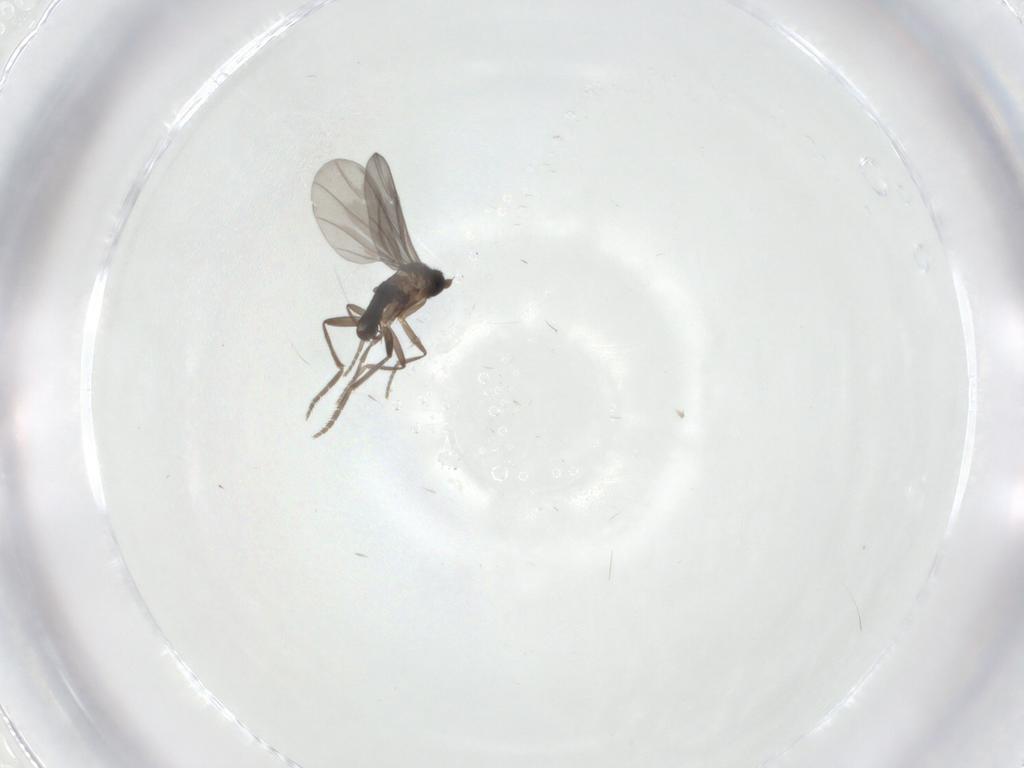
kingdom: Animalia
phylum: Arthropoda
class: Insecta
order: Diptera
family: Phoridae
